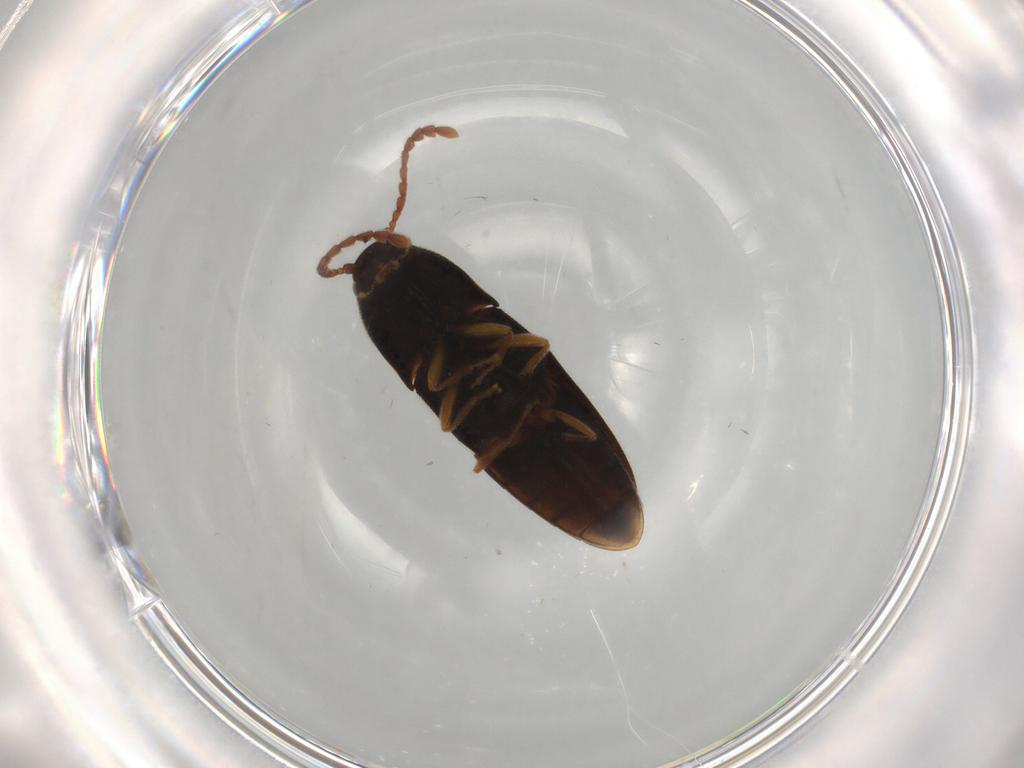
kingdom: Animalia
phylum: Arthropoda
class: Insecta
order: Coleoptera
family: Elateridae
